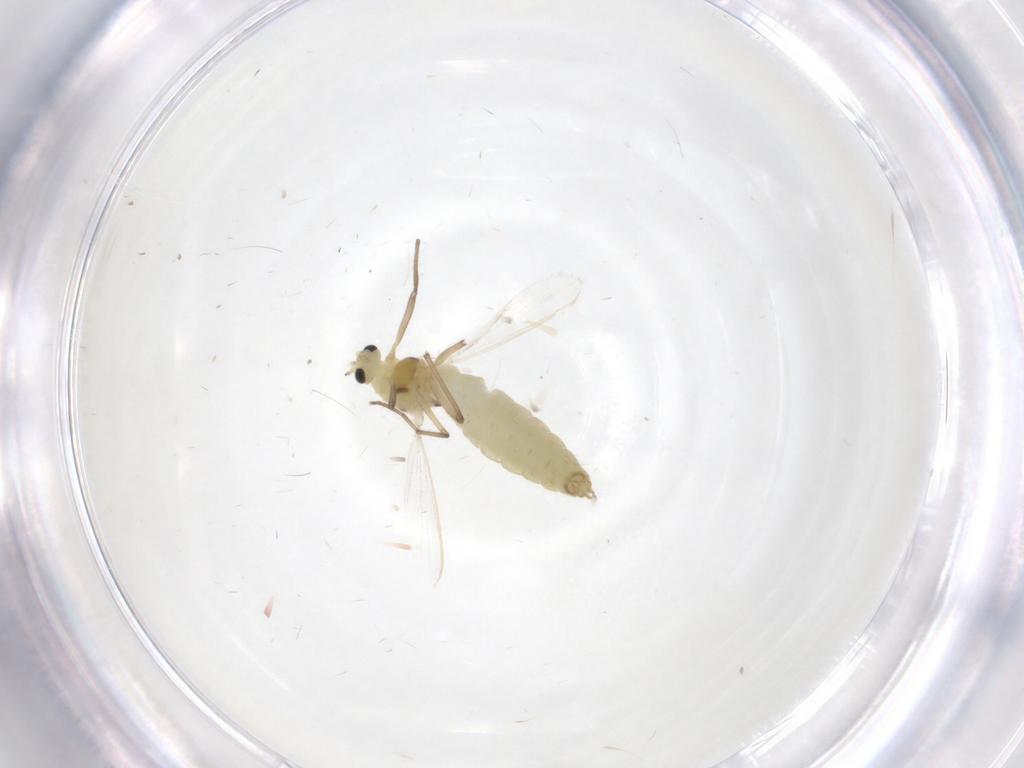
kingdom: Animalia
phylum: Arthropoda
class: Insecta
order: Diptera
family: Chironomidae
